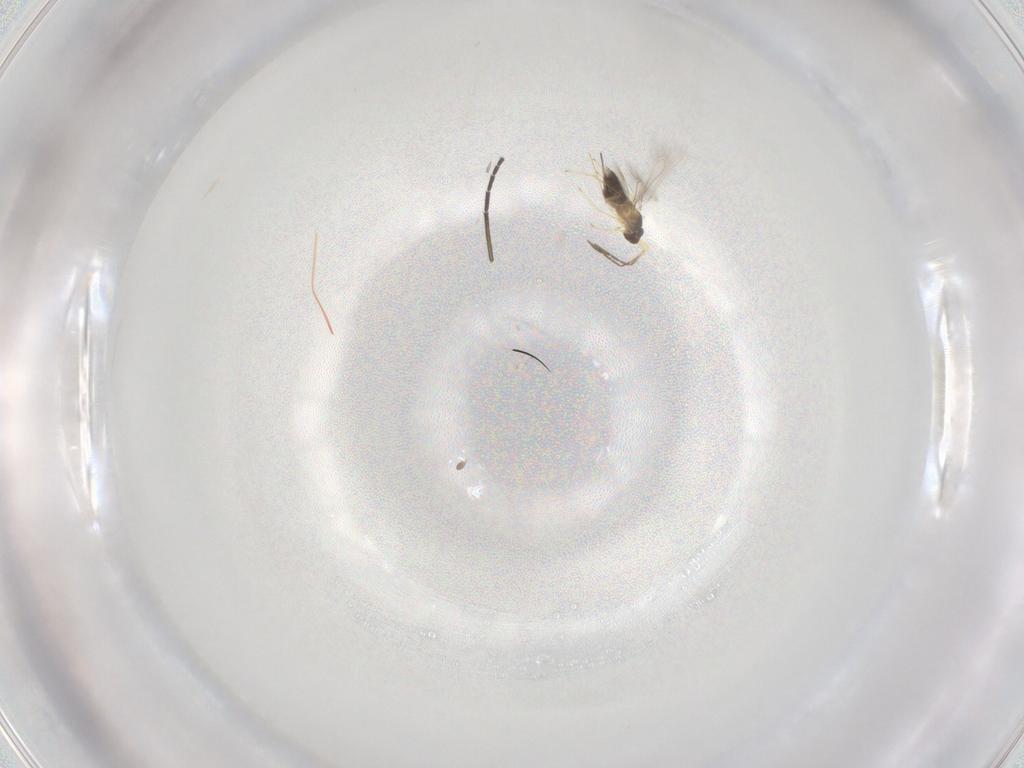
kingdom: Animalia
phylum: Arthropoda
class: Insecta
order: Hymenoptera
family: Mymaridae
